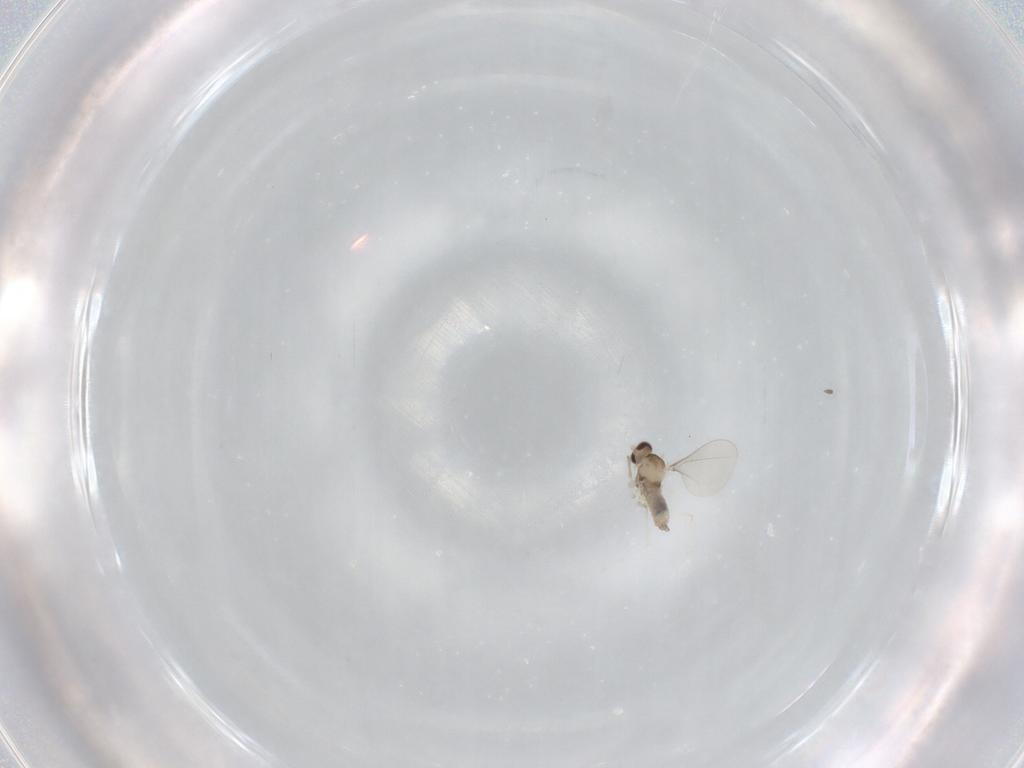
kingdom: Animalia
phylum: Arthropoda
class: Insecta
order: Diptera
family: Cecidomyiidae
